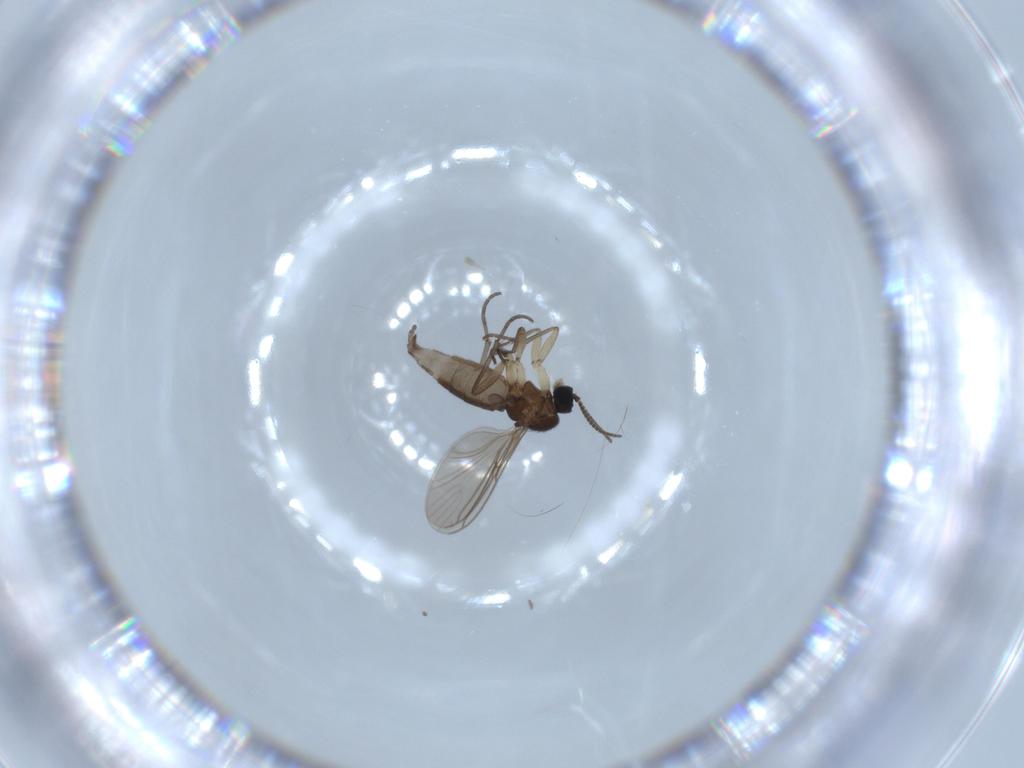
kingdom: Animalia
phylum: Arthropoda
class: Insecta
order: Diptera
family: Sciaridae
